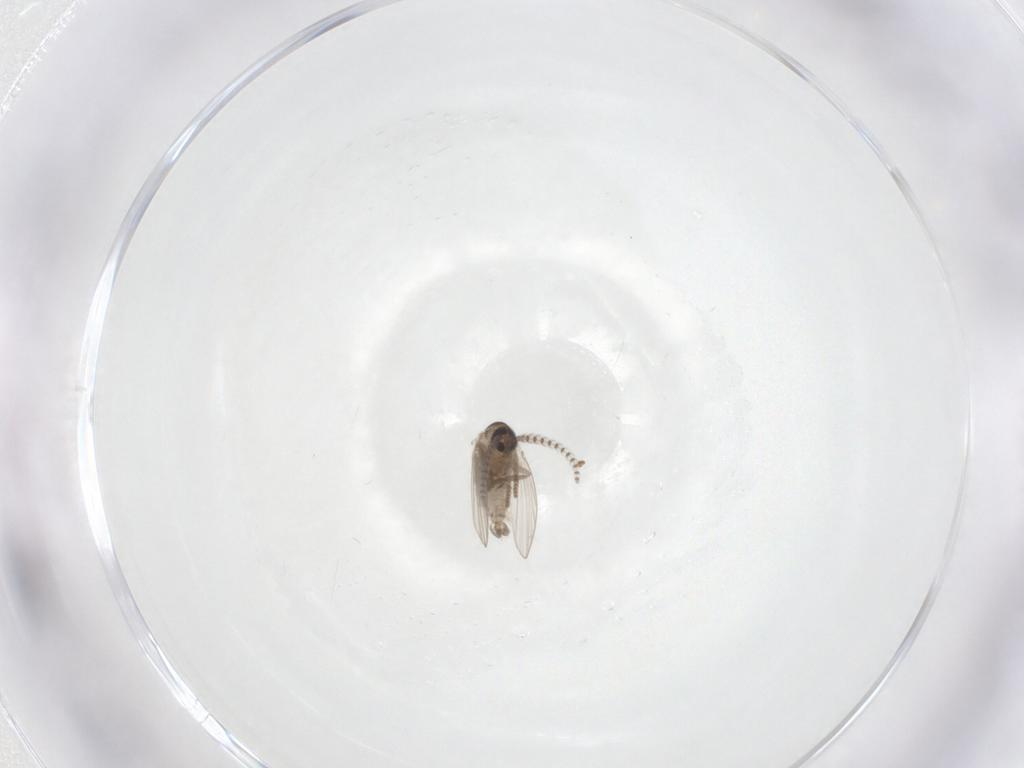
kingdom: Animalia
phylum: Arthropoda
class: Insecta
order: Diptera
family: Psychodidae
